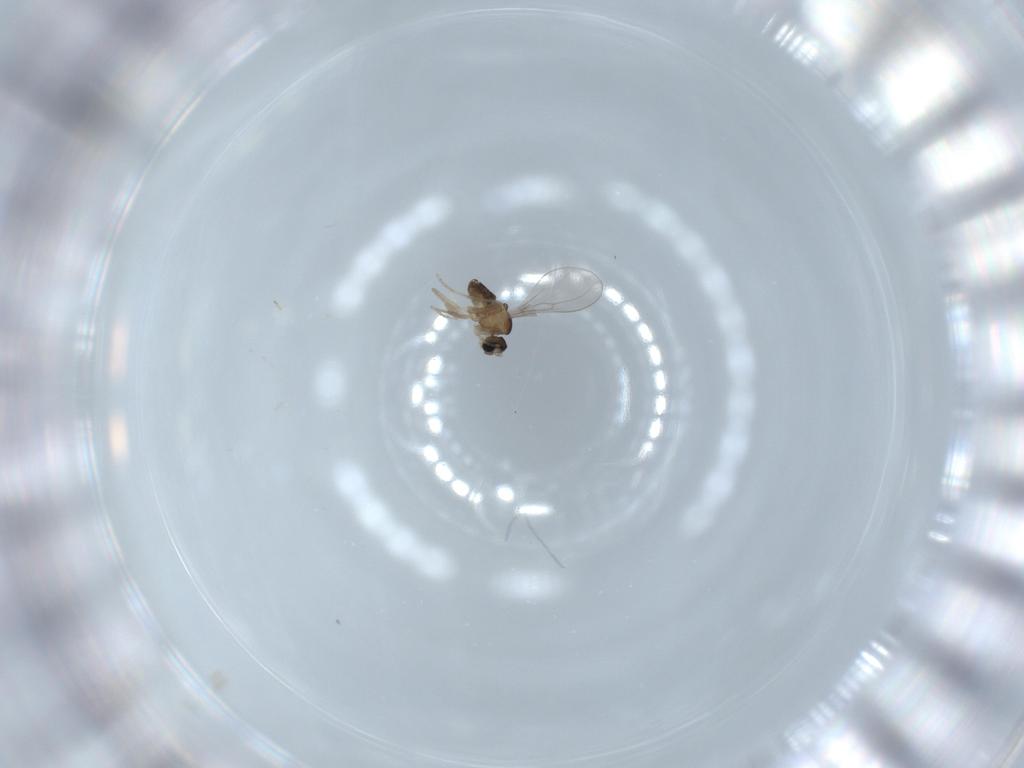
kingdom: Animalia
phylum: Arthropoda
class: Insecta
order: Diptera
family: Cecidomyiidae
